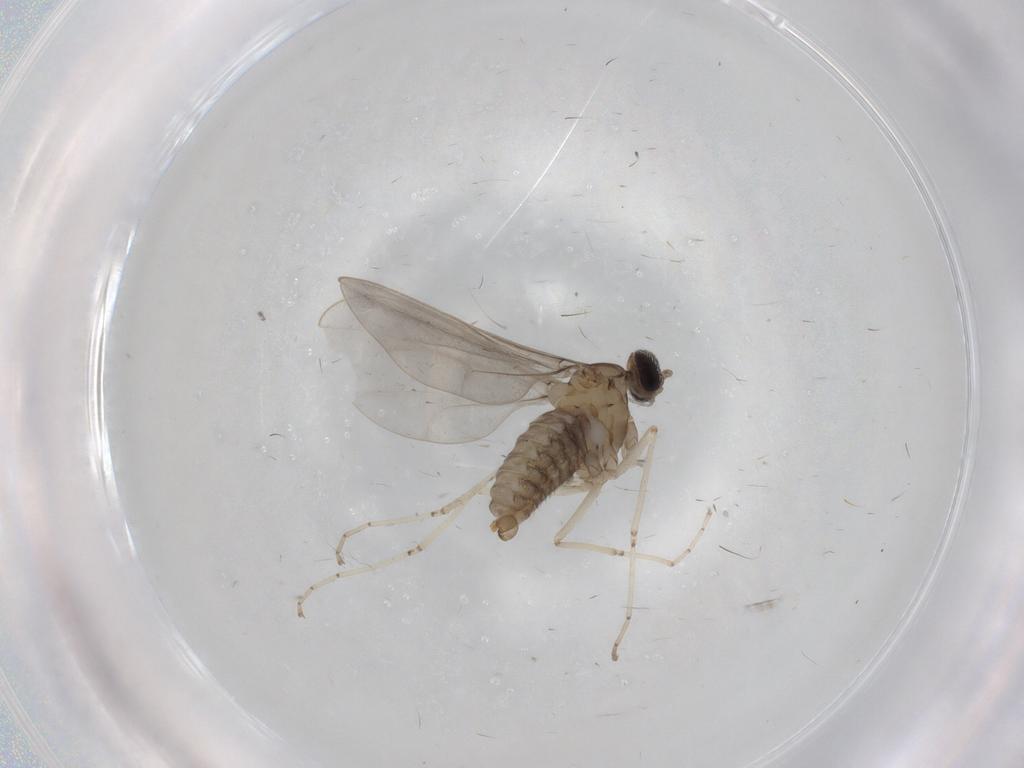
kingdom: Animalia
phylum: Arthropoda
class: Insecta
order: Diptera
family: Cecidomyiidae
